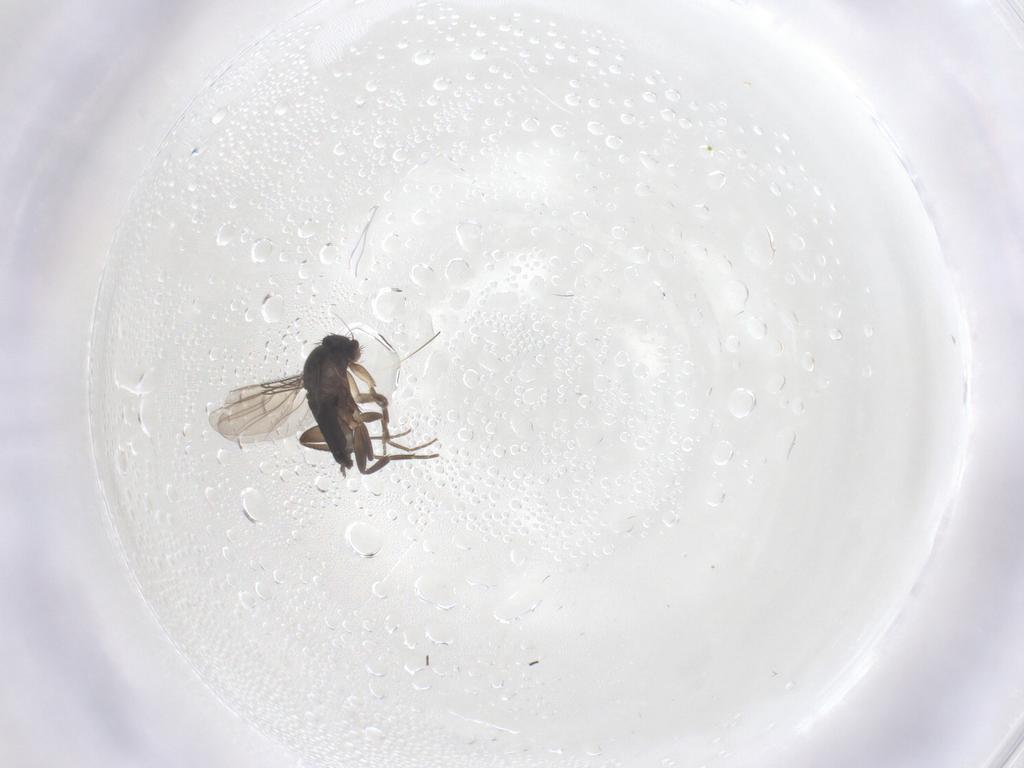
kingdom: Animalia
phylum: Arthropoda
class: Insecta
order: Diptera
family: Phoridae
